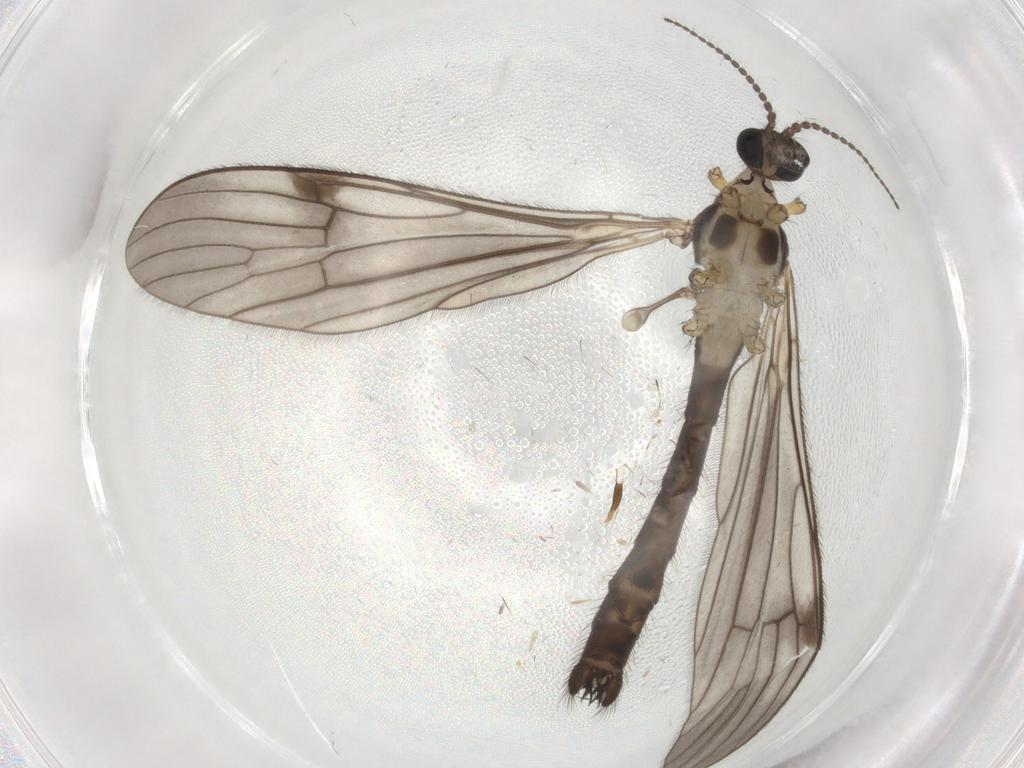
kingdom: Animalia
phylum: Arthropoda
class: Insecta
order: Diptera
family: Limoniidae
